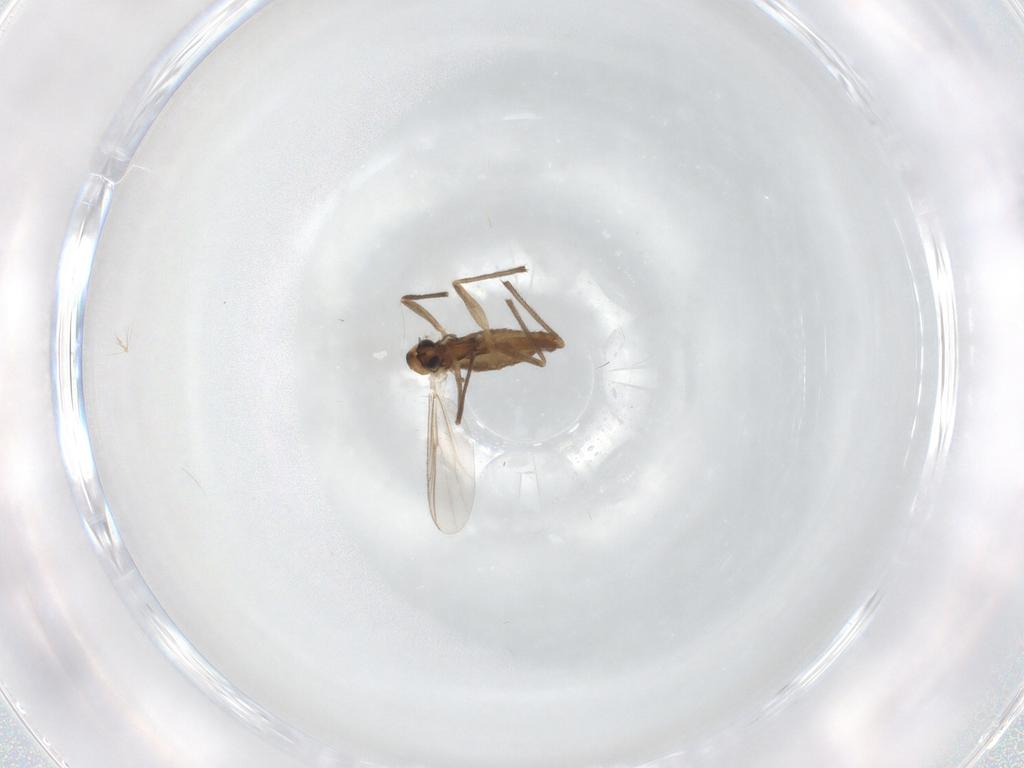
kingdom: Animalia
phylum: Arthropoda
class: Insecta
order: Diptera
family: Chironomidae
